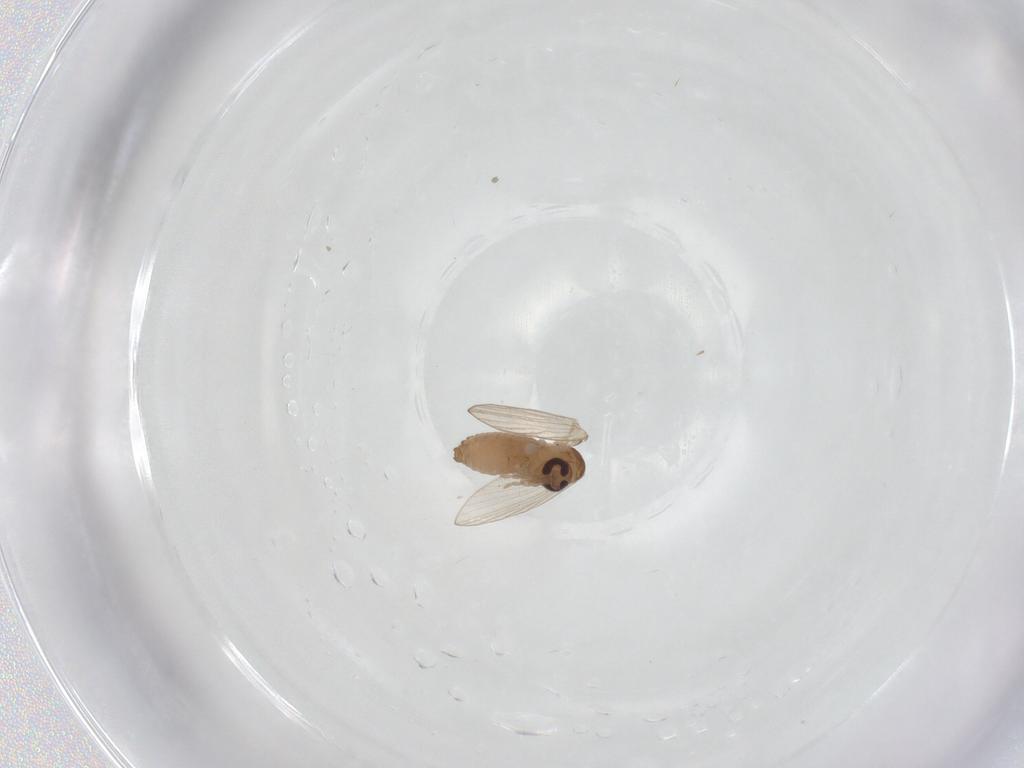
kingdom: Animalia
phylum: Arthropoda
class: Insecta
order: Diptera
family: Psychodidae
